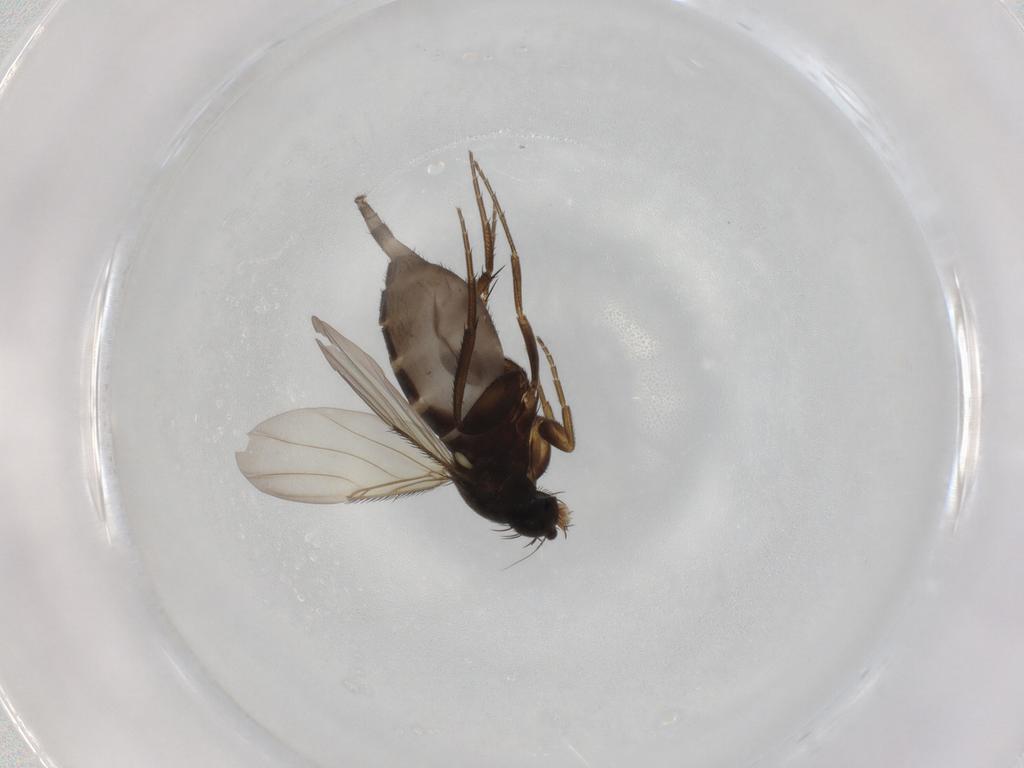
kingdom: Animalia
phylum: Arthropoda
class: Insecta
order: Diptera
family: Phoridae
